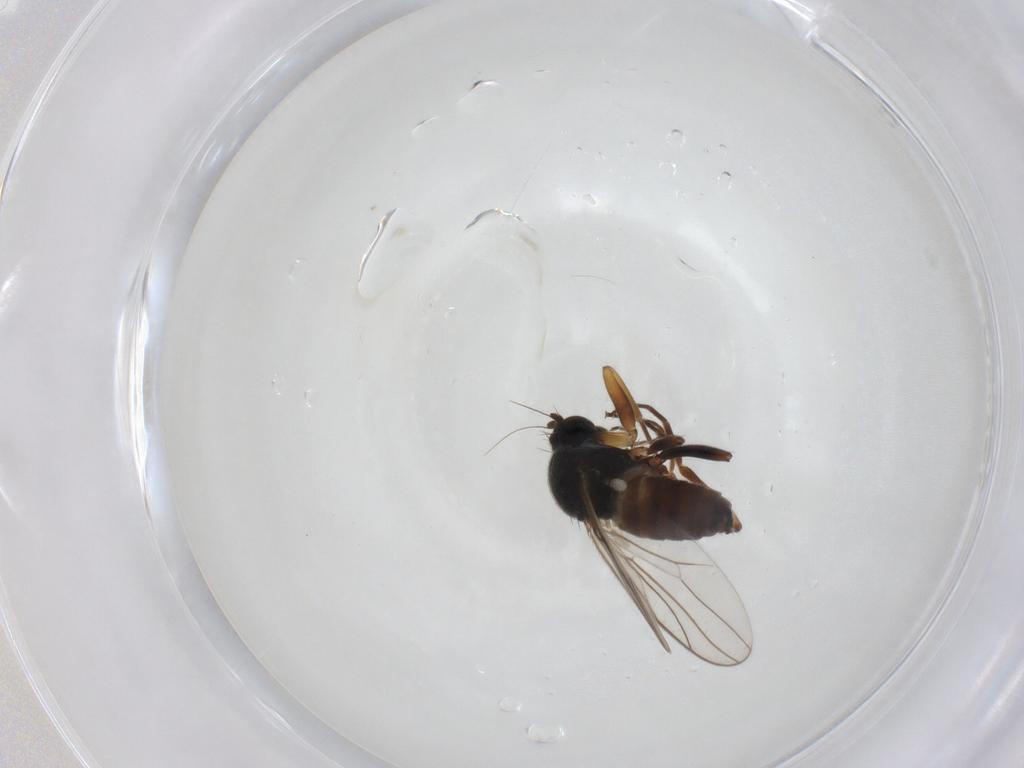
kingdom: Animalia
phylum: Arthropoda
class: Insecta
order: Diptera
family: Hybotidae
